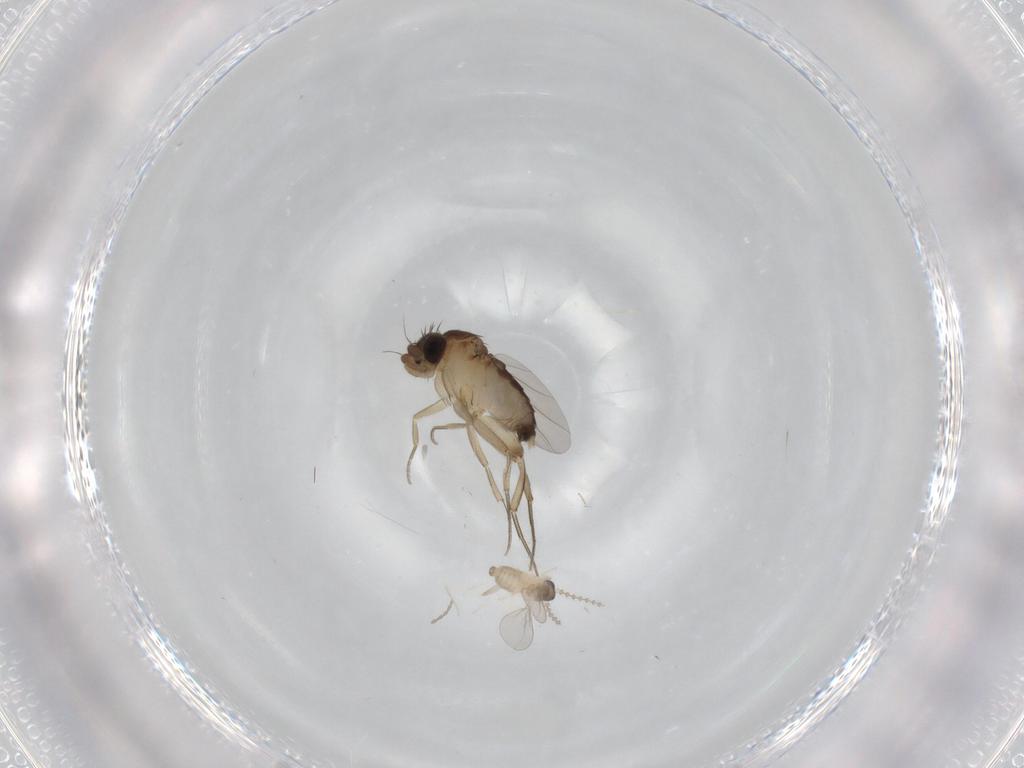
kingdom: Animalia
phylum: Arthropoda
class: Insecta
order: Diptera
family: Cecidomyiidae
